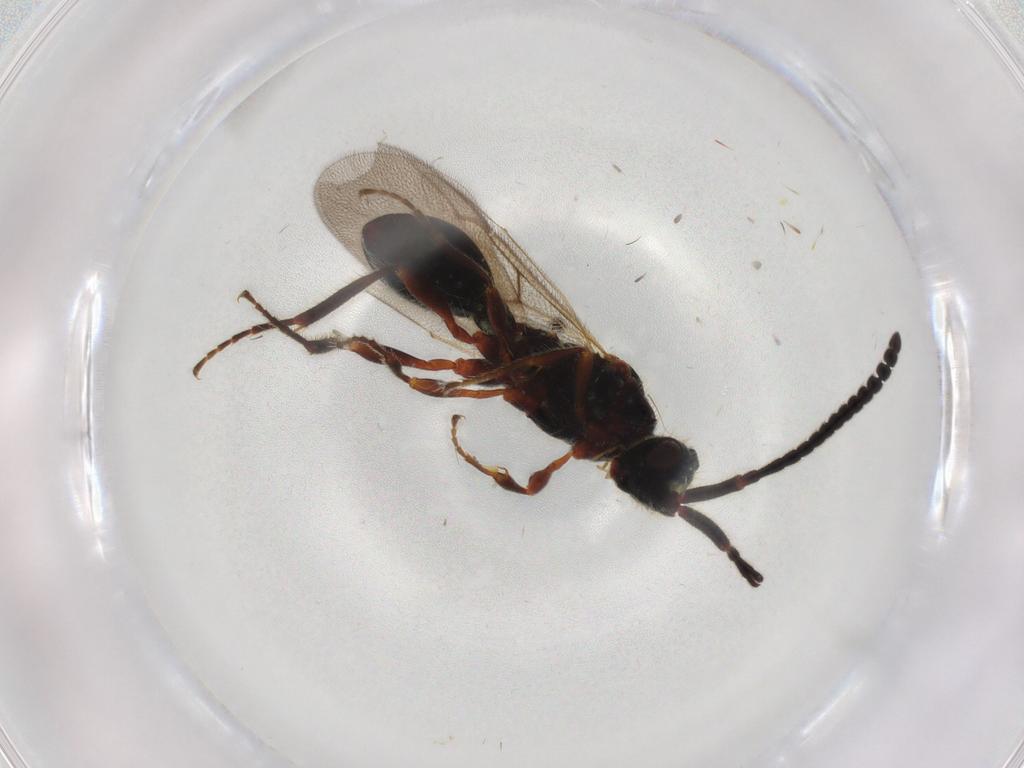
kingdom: Animalia
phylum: Arthropoda
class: Insecta
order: Hymenoptera
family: Diapriidae
